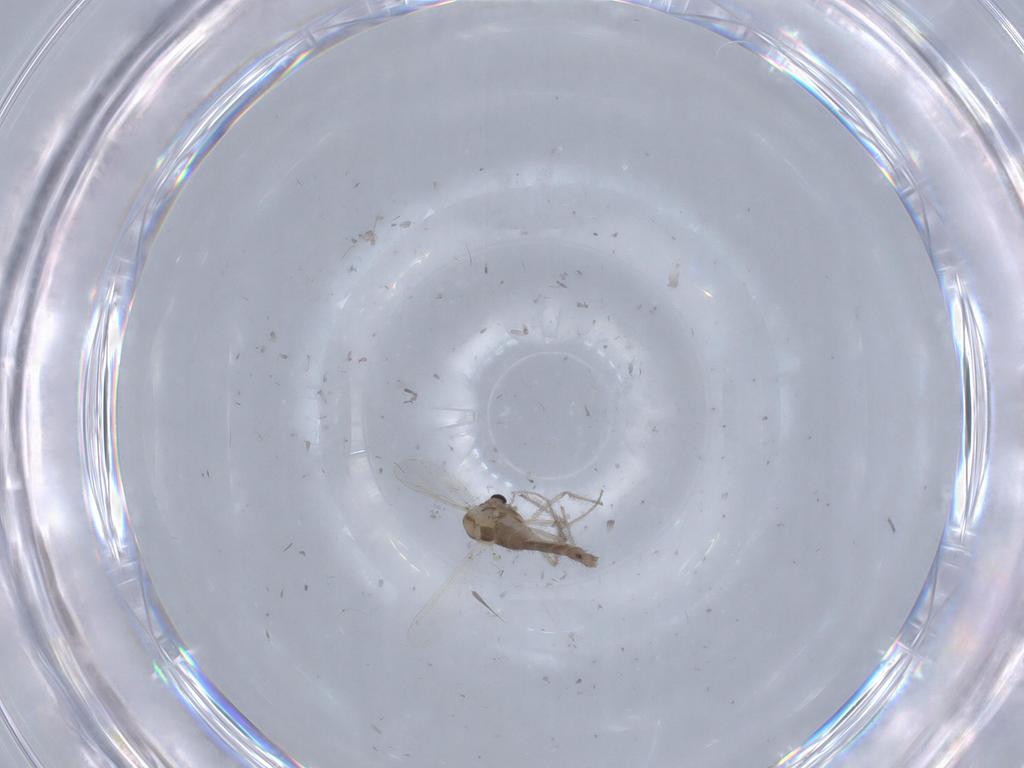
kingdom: Animalia
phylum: Arthropoda
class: Insecta
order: Diptera
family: Chironomidae
